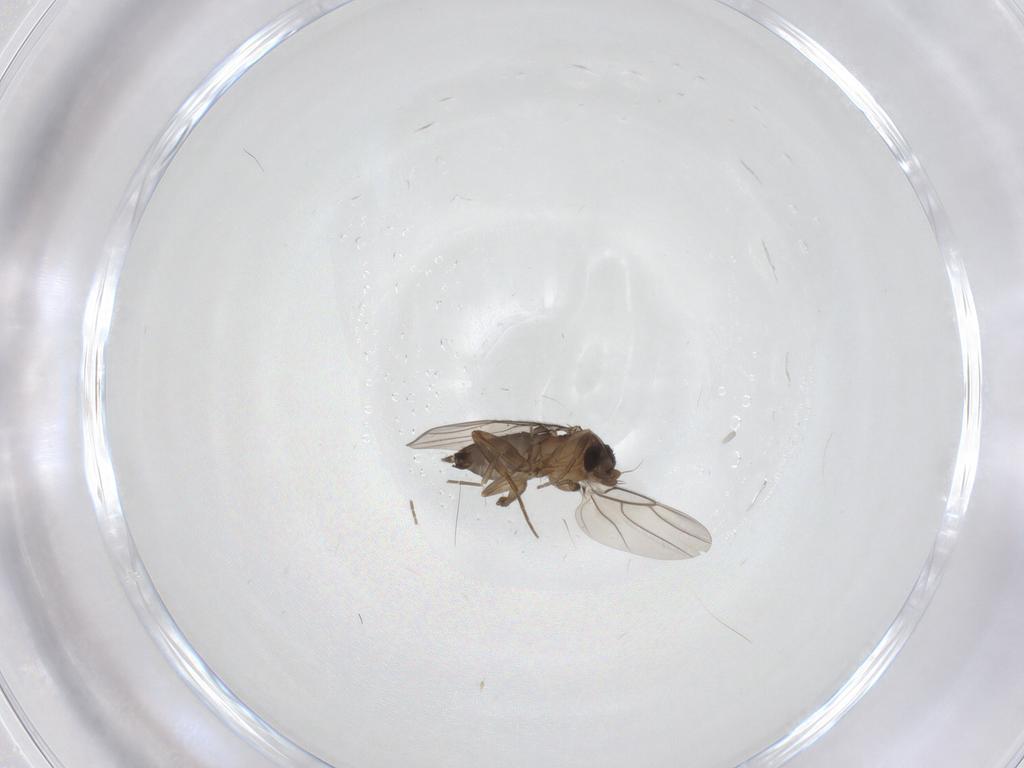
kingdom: Animalia
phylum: Arthropoda
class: Insecta
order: Diptera
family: Phoridae
